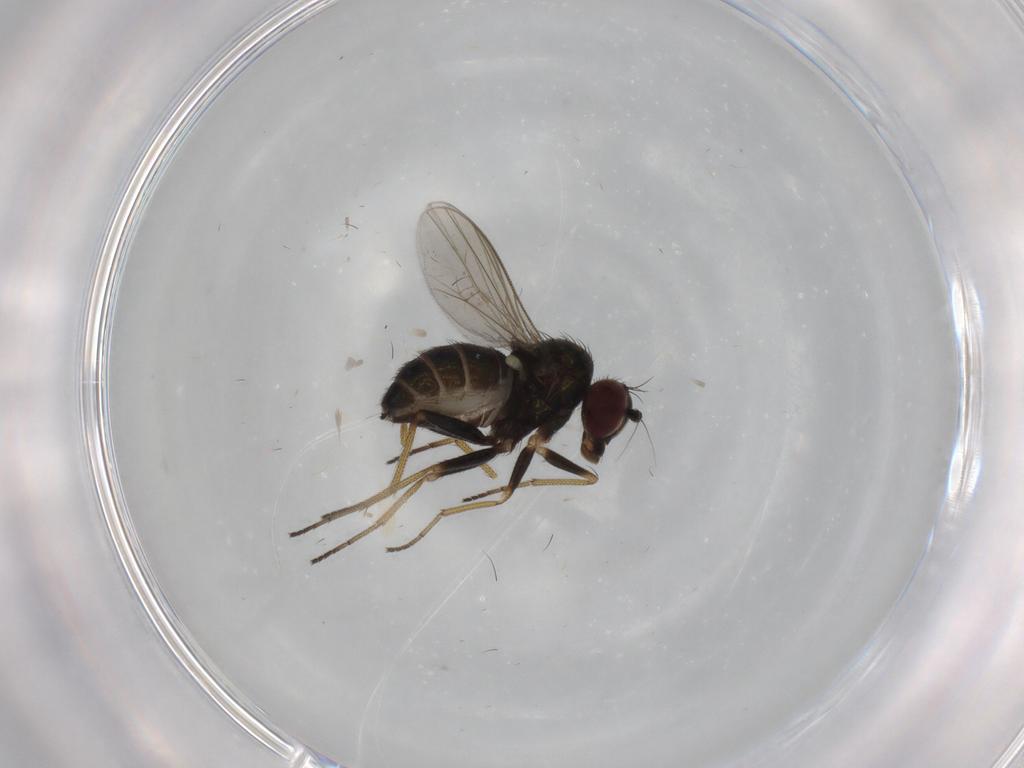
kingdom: Animalia
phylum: Arthropoda
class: Insecta
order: Diptera
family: Dolichopodidae
